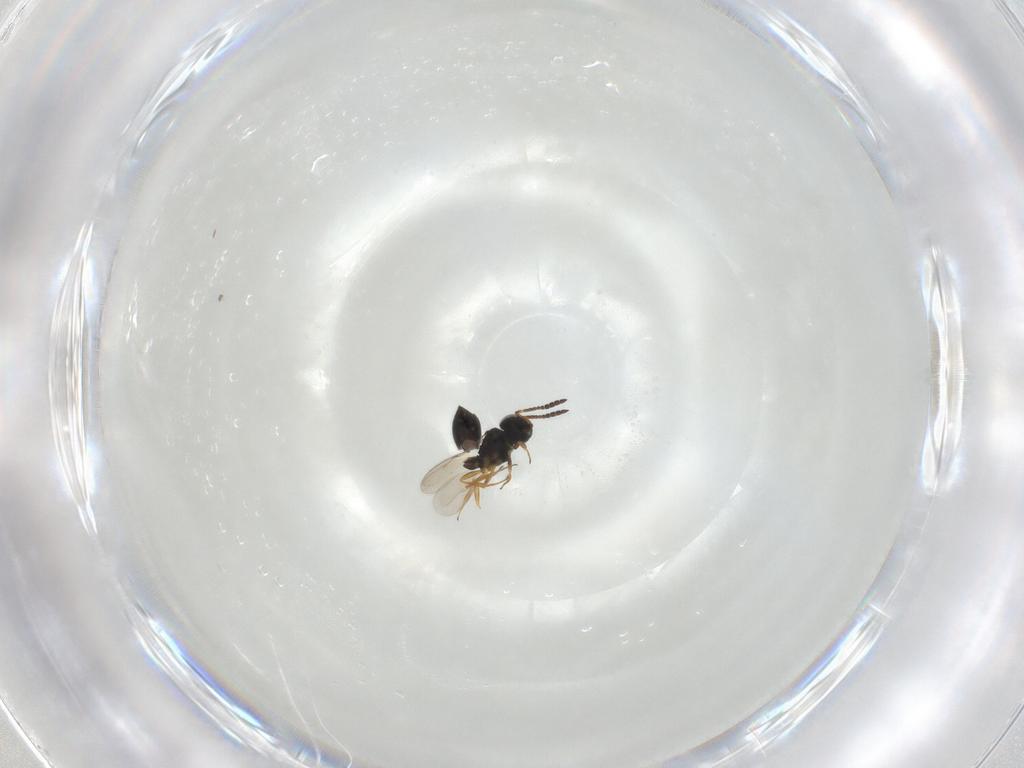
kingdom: Animalia
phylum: Arthropoda
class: Insecta
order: Hymenoptera
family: Scelionidae
